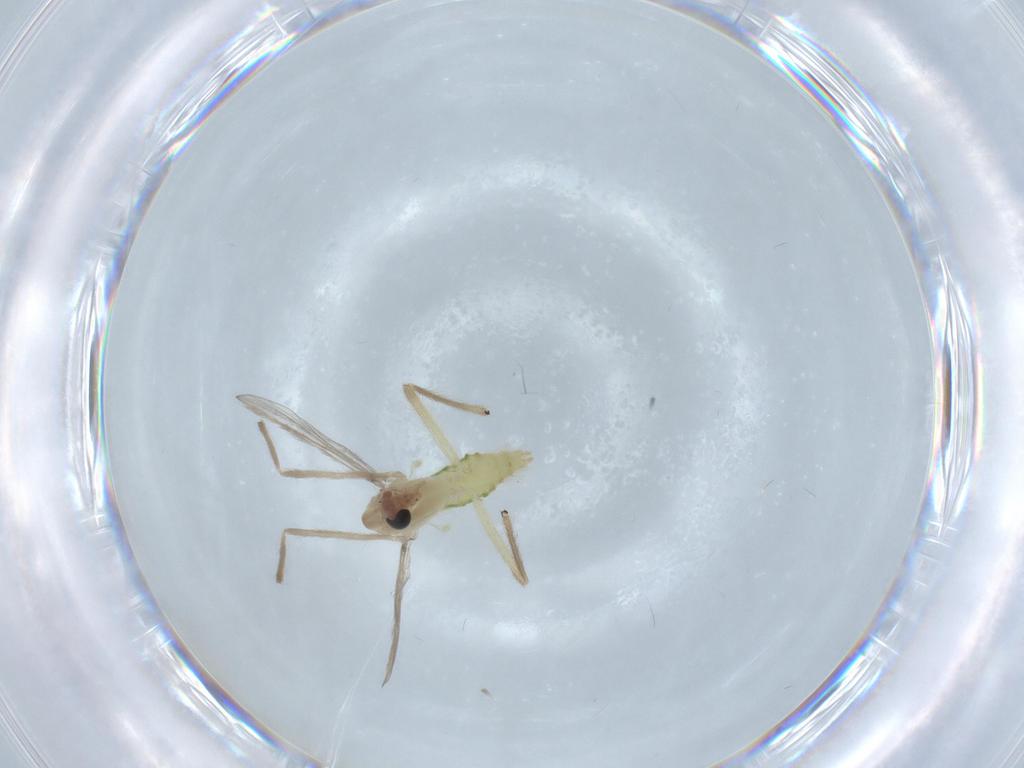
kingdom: Animalia
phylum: Arthropoda
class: Insecta
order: Diptera
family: Chironomidae
